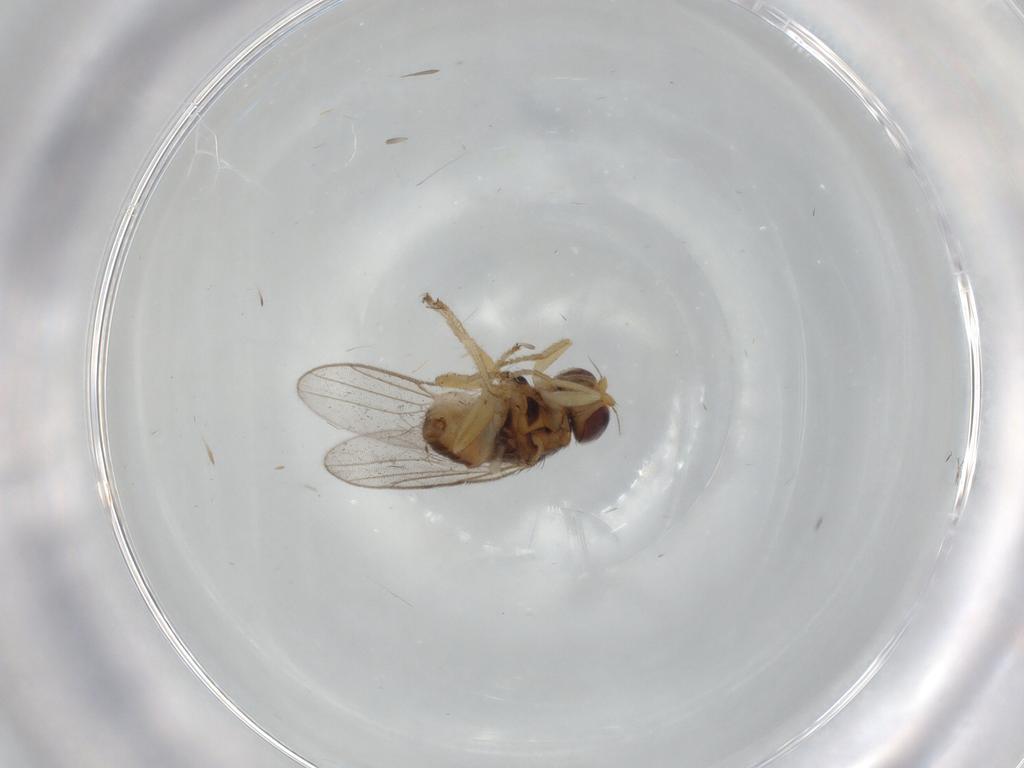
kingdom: Animalia
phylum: Arthropoda
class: Insecta
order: Diptera
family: Chloropidae
